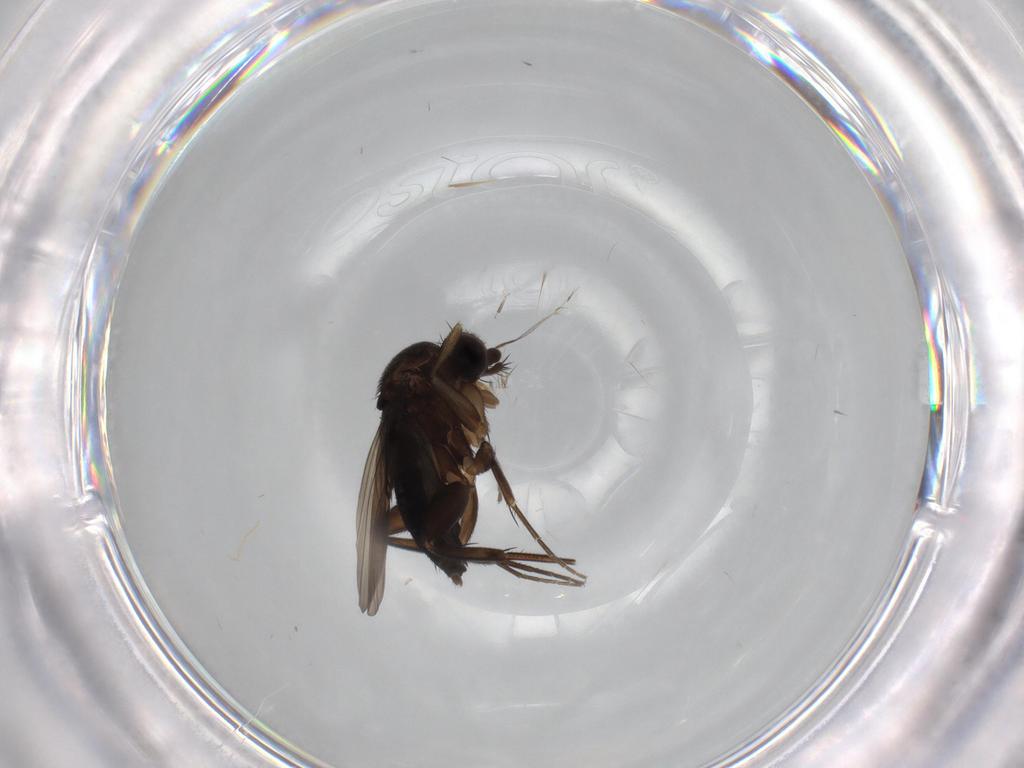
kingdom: Animalia
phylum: Arthropoda
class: Insecta
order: Diptera
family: Phoridae
